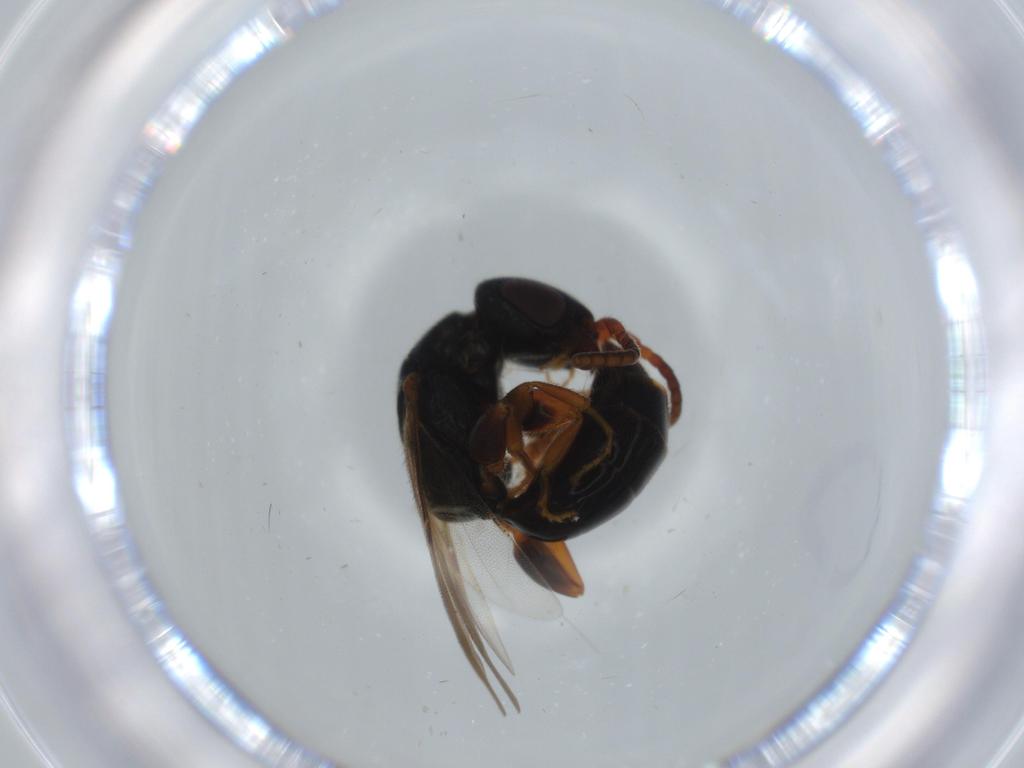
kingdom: Animalia
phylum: Arthropoda
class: Insecta
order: Hymenoptera
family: Bethylidae
